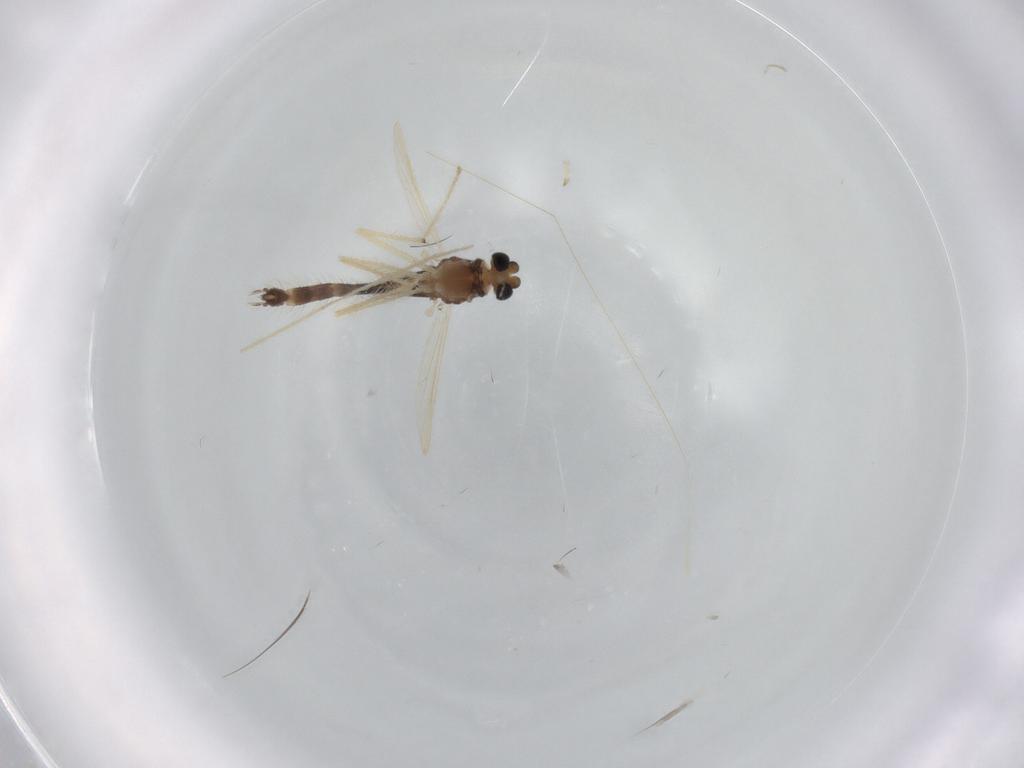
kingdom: Animalia
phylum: Arthropoda
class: Insecta
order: Diptera
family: Chironomidae
